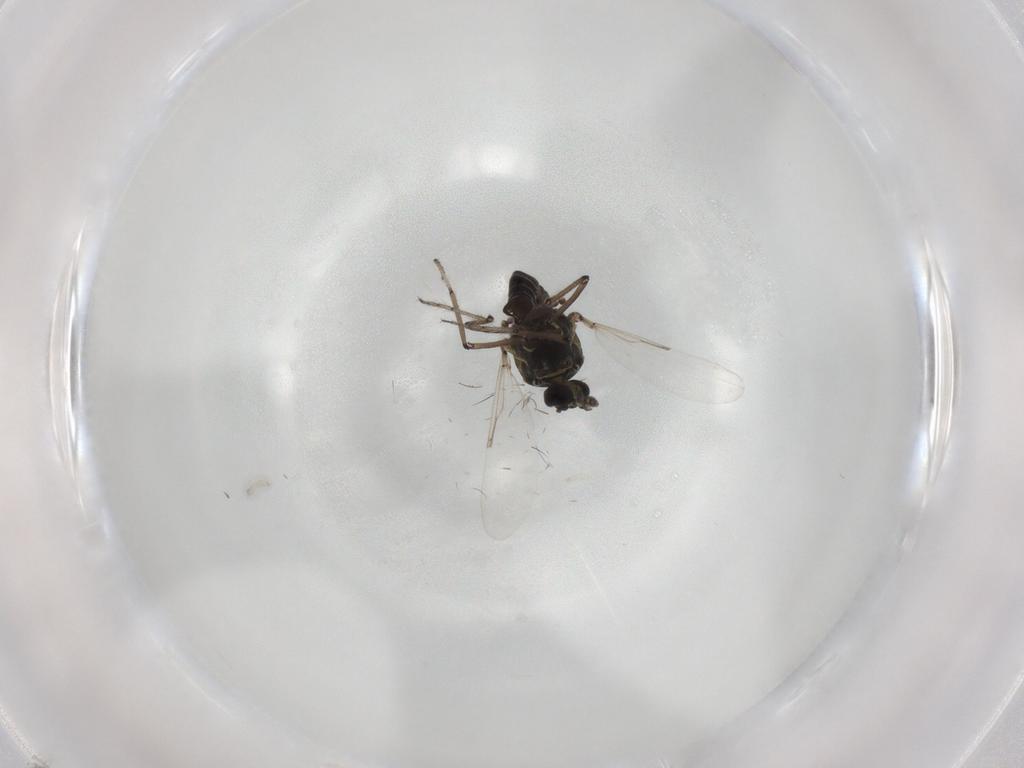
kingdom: Animalia
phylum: Arthropoda
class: Insecta
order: Diptera
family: Ceratopogonidae
